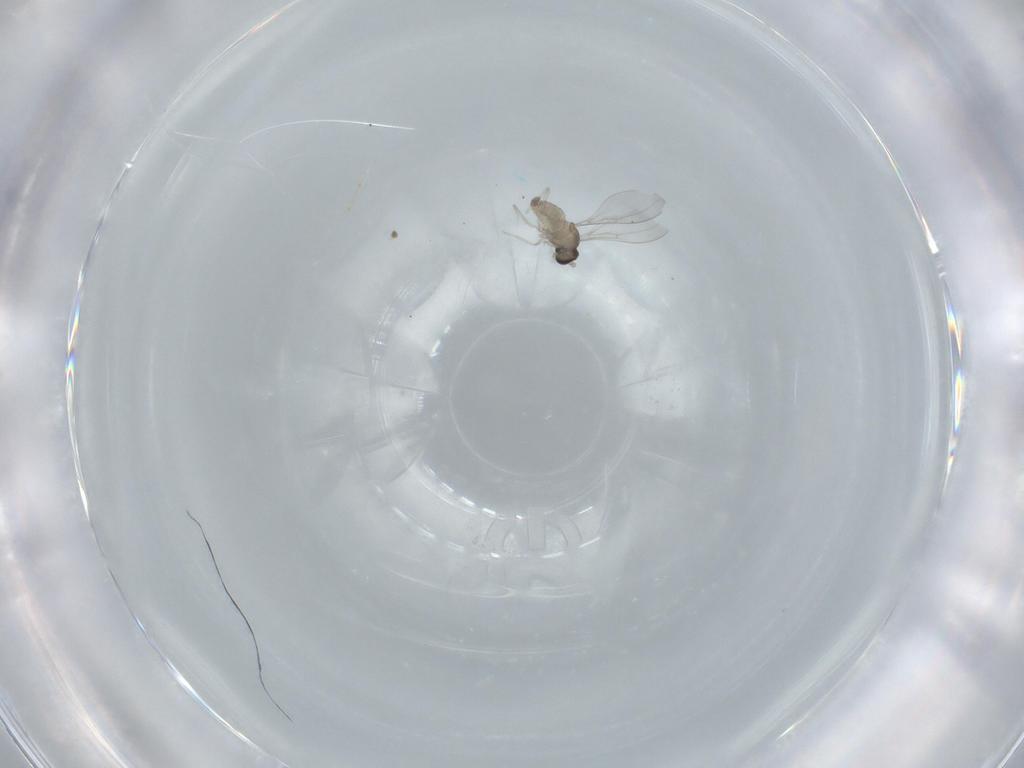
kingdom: Animalia
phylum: Arthropoda
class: Insecta
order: Diptera
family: Cecidomyiidae
